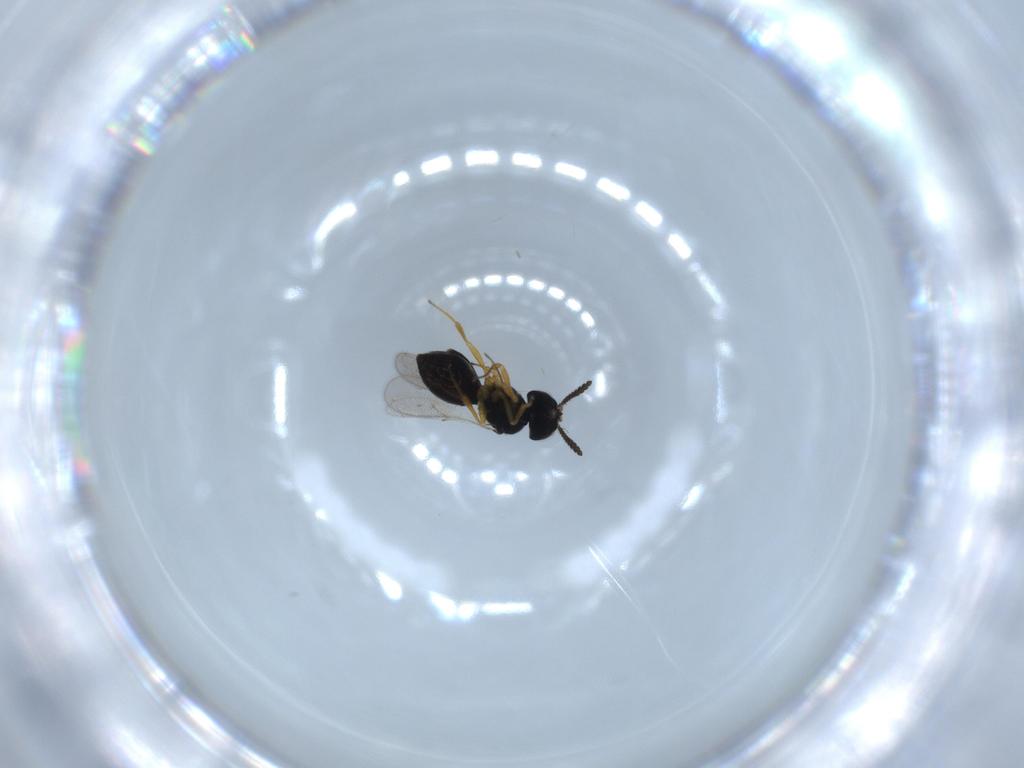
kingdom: Animalia
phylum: Arthropoda
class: Insecta
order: Hymenoptera
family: Scelionidae
